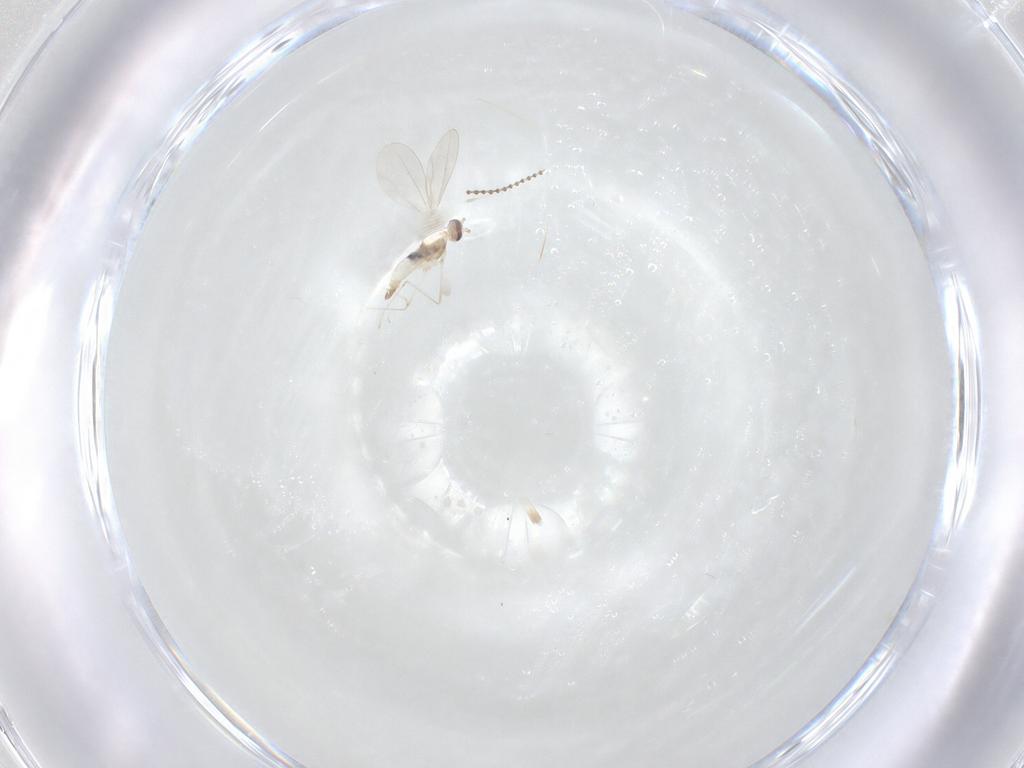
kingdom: Animalia
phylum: Arthropoda
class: Insecta
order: Diptera
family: Cecidomyiidae
